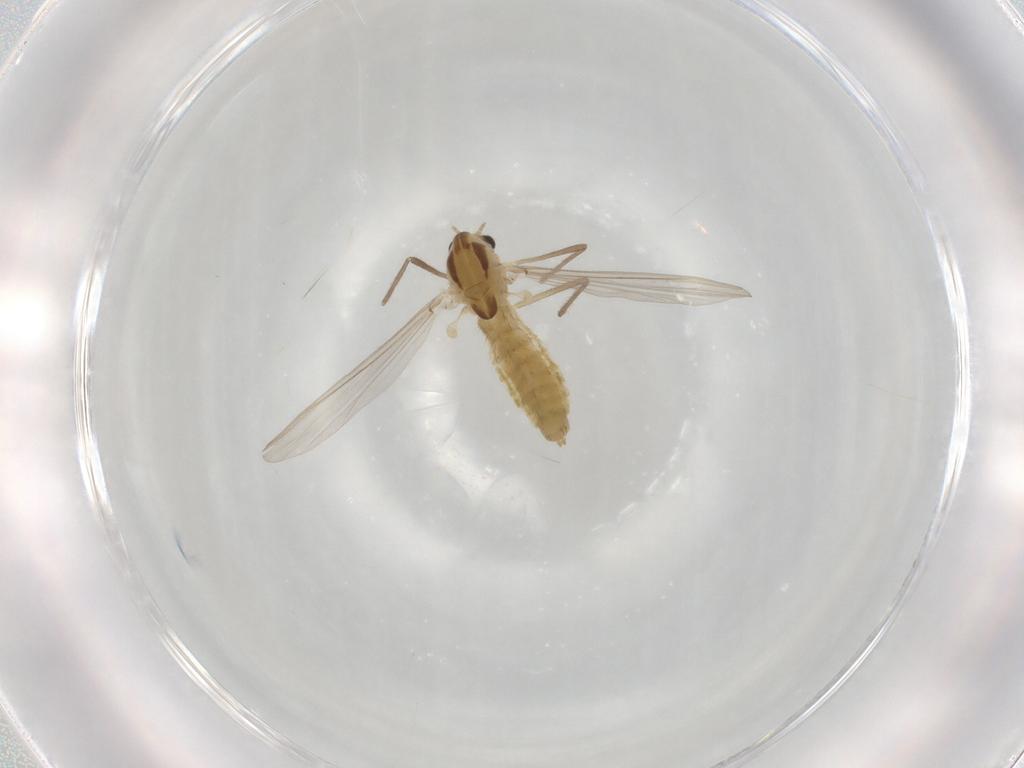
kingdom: Animalia
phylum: Arthropoda
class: Insecta
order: Diptera
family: Chironomidae
